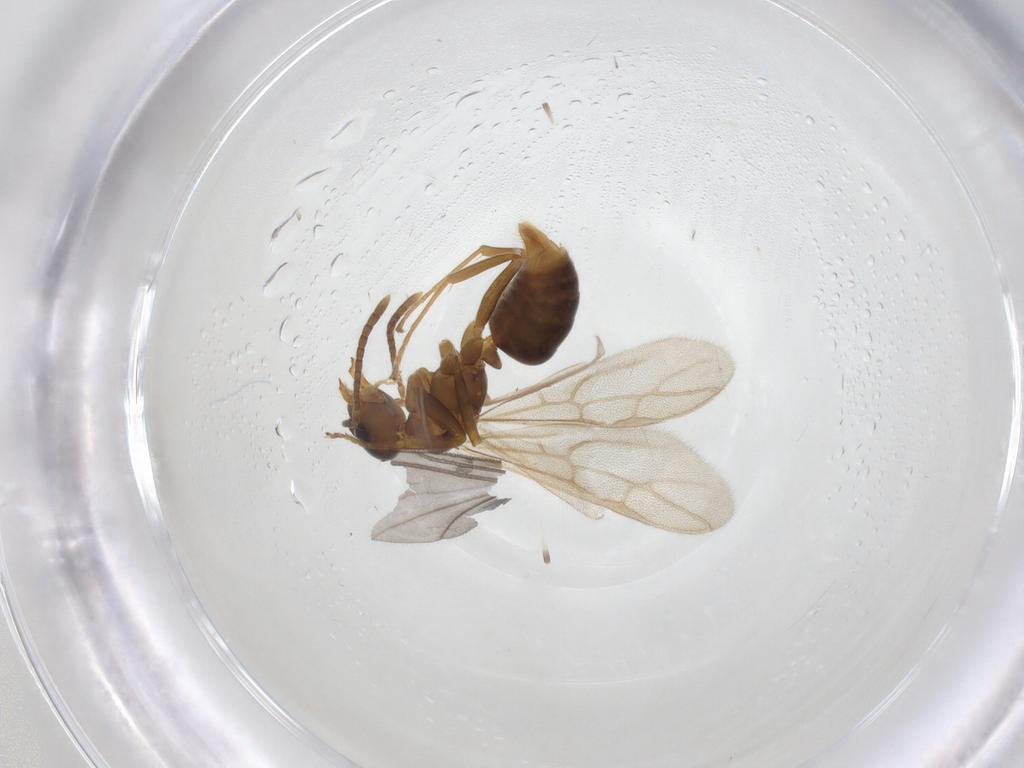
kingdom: Animalia
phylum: Arthropoda
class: Insecta
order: Hymenoptera
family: Formicidae
